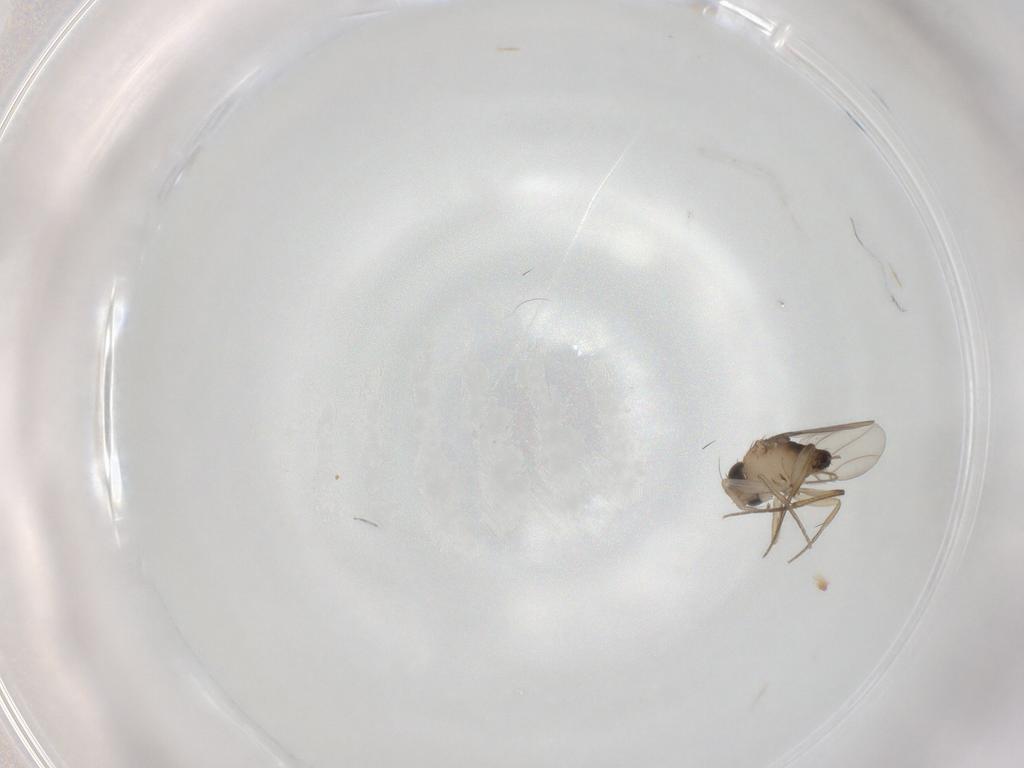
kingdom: Animalia
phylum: Arthropoda
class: Insecta
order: Diptera
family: Phoridae
